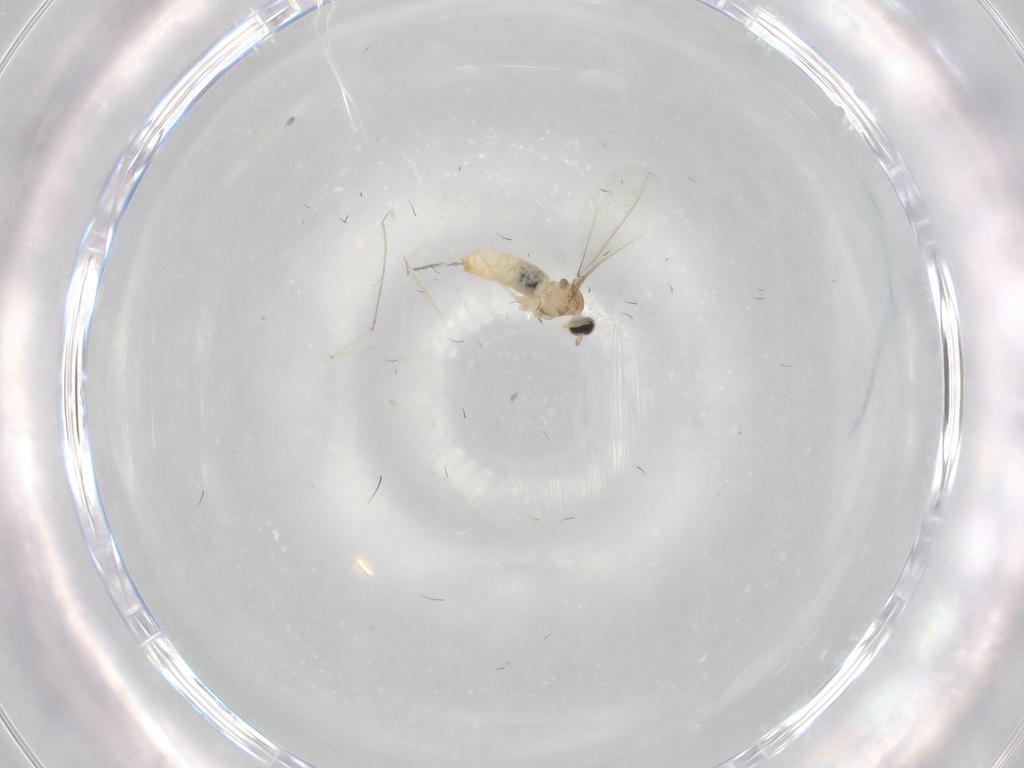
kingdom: Animalia
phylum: Arthropoda
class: Insecta
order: Diptera
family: Cecidomyiidae
